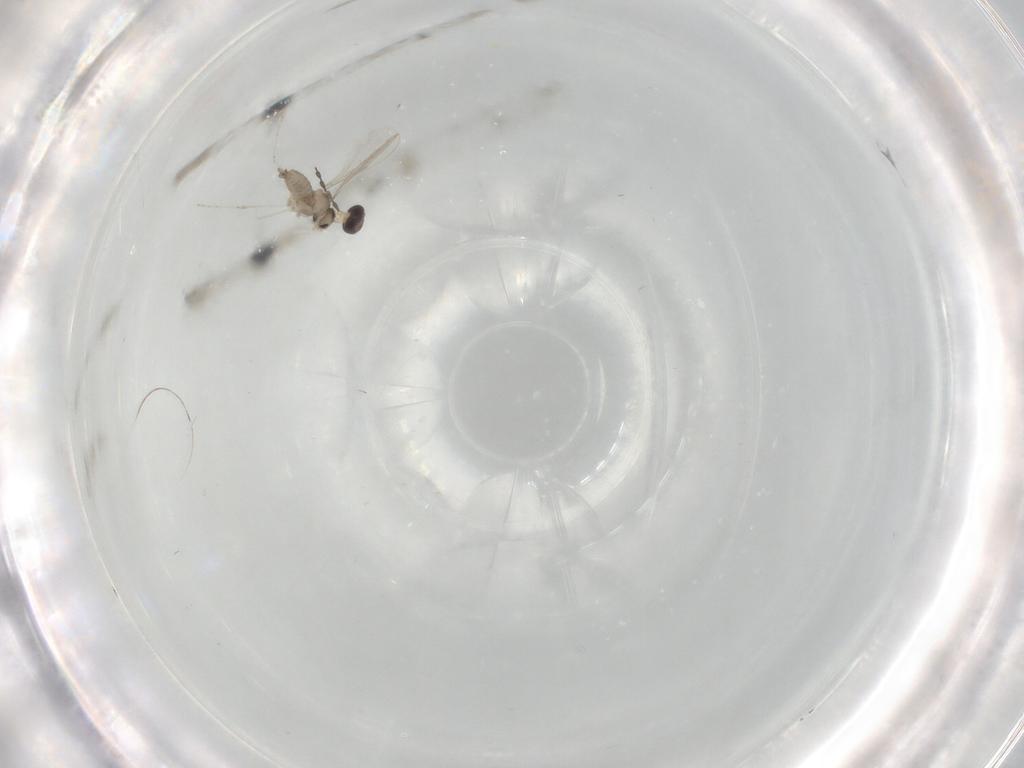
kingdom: Animalia
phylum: Arthropoda
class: Insecta
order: Diptera
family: Cecidomyiidae
